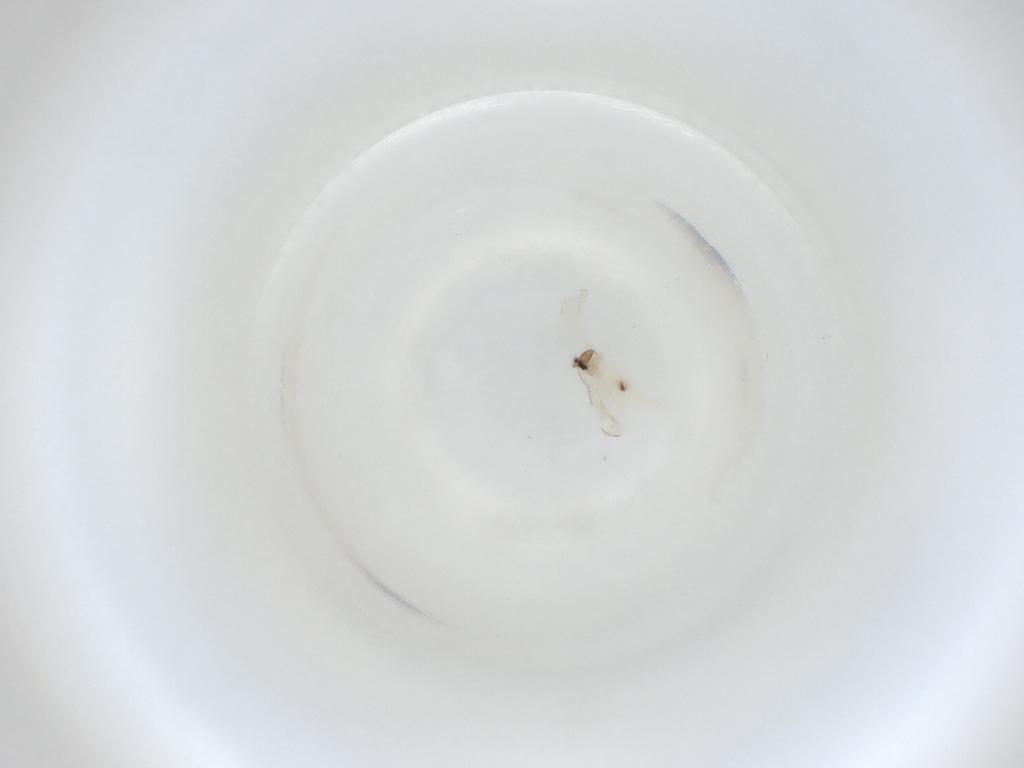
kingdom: Animalia
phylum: Arthropoda
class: Insecta
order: Diptera
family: Cecidomyiidae
